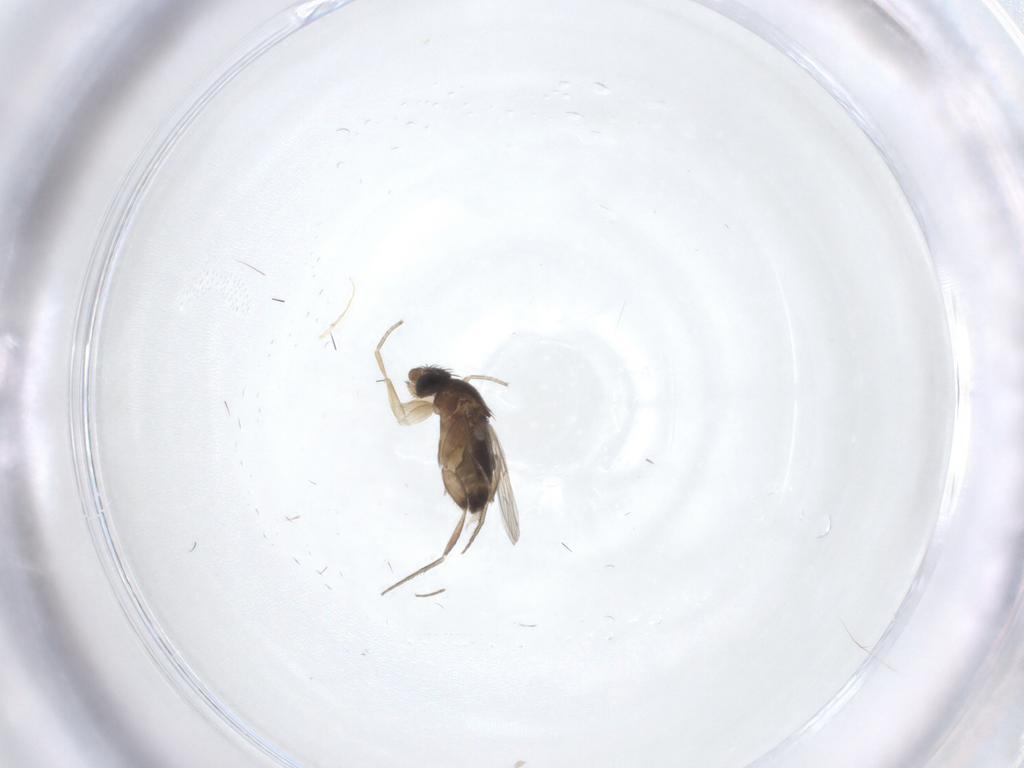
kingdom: Animalia
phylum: Arthropoda
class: Insecta
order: Diptera
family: Phoridae
